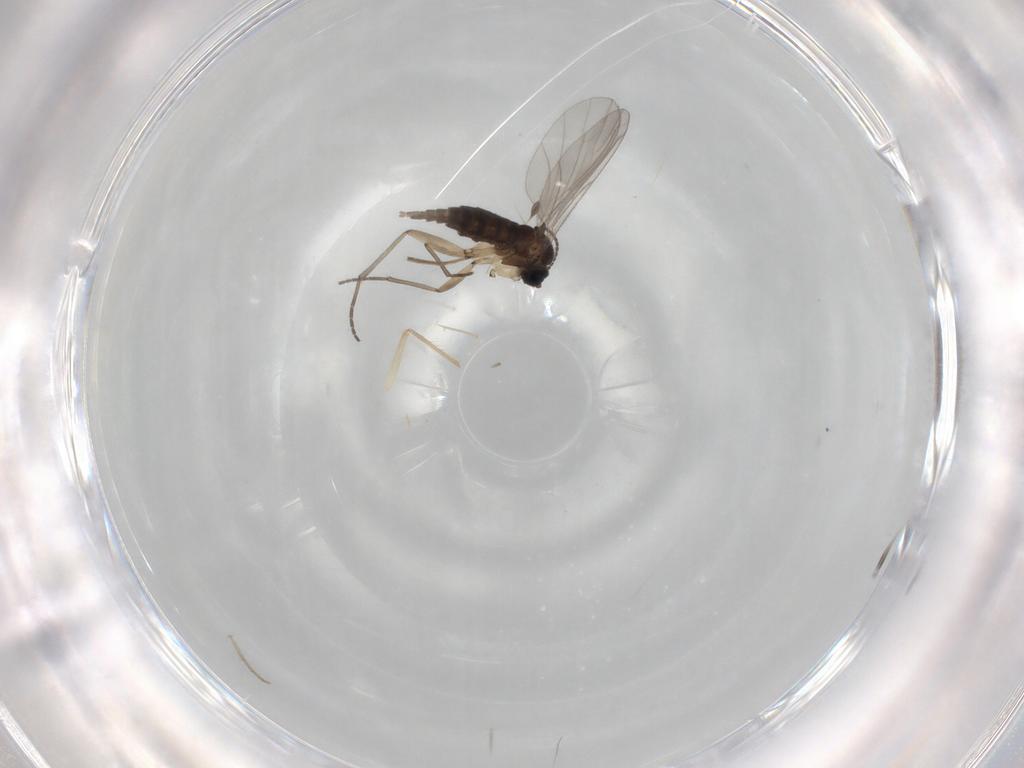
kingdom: Animalia
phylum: Arthropoda
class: Insecta
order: Diptera
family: Sciaridae
